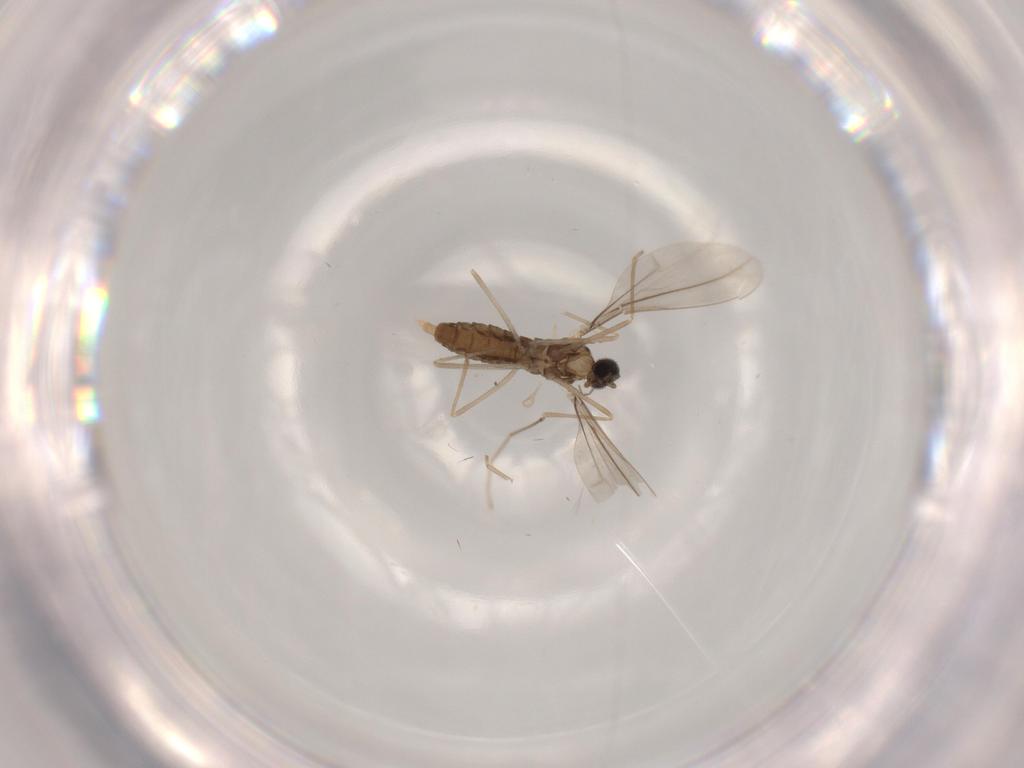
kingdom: Animalia
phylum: Arthropoda
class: Insecta
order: Diptera
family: Cecidomyiidae
